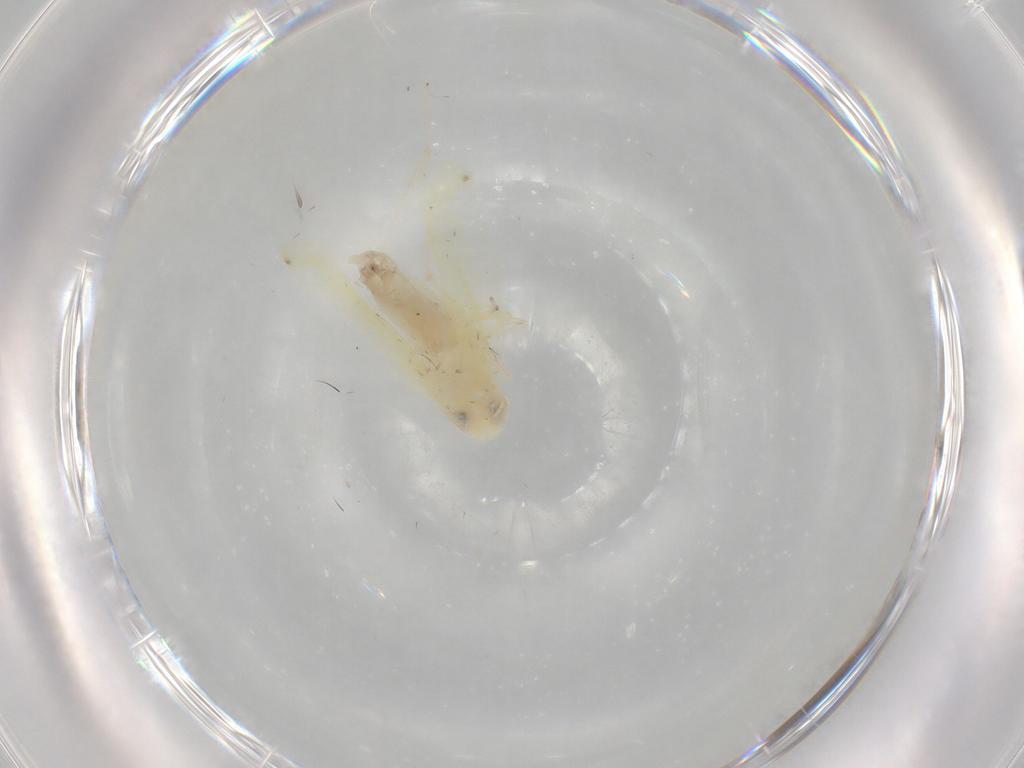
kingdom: Animalia
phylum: Arthropoda
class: Insecta
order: Hemiptera
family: Cicadellidae
